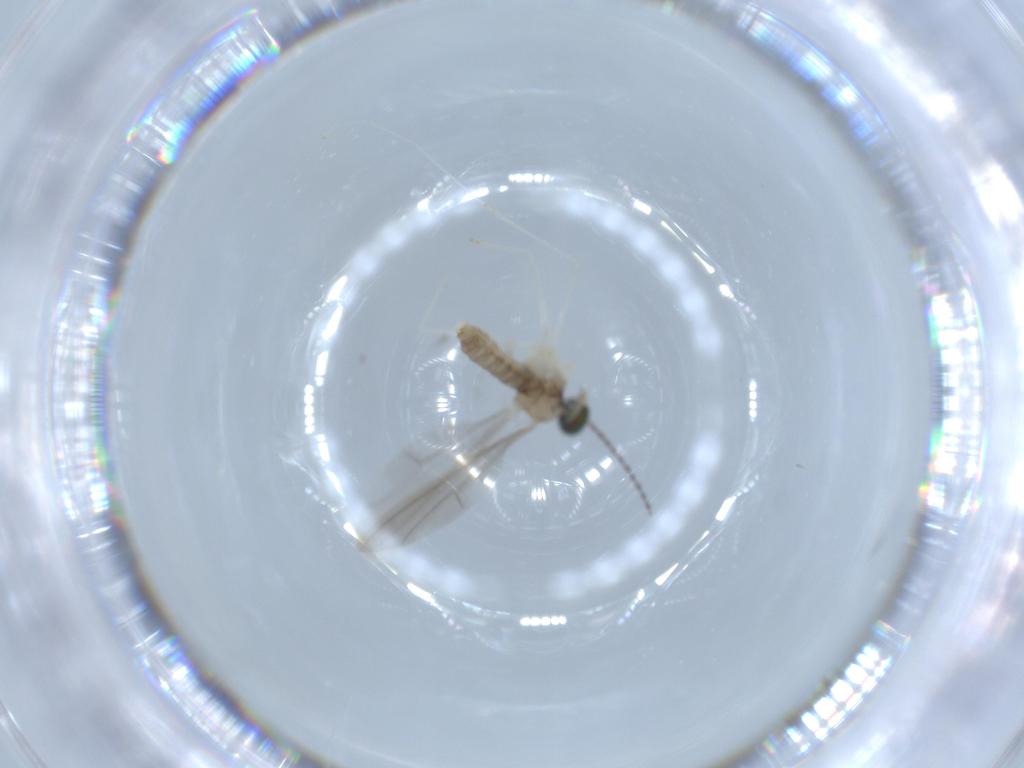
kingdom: Animalia
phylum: Arthropoda
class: Insecta
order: Diptera
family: Cecidomyiidae
